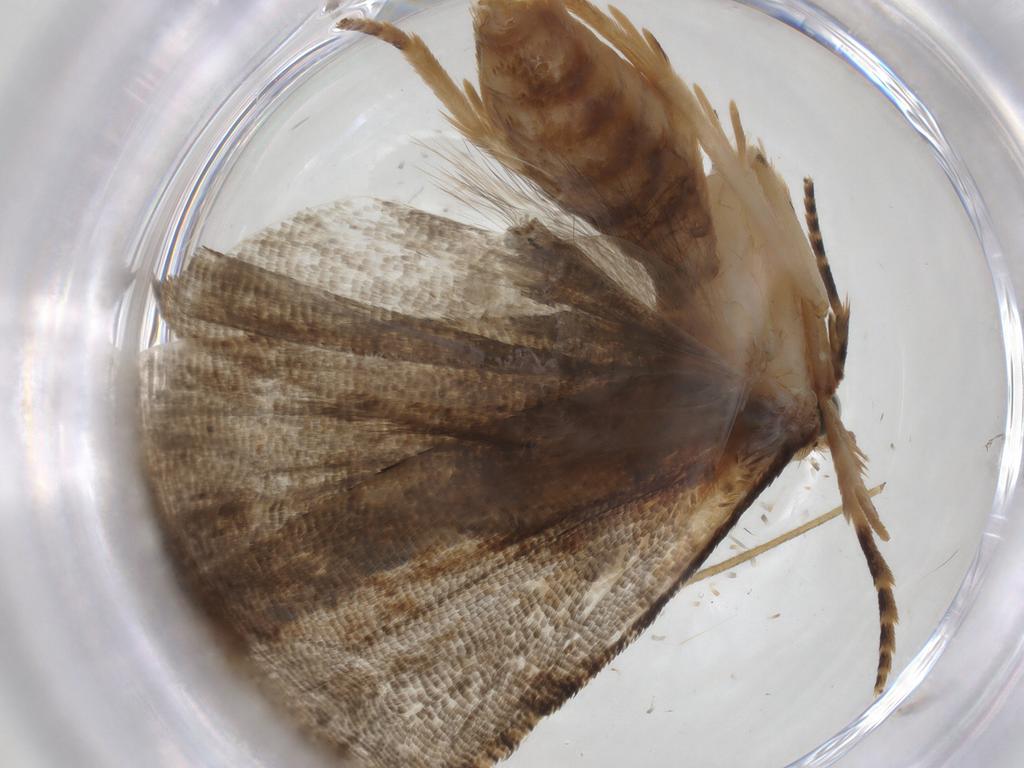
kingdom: Animalia
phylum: Arthropoda
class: Insecta
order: Lepidoptera
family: Tortricidae
